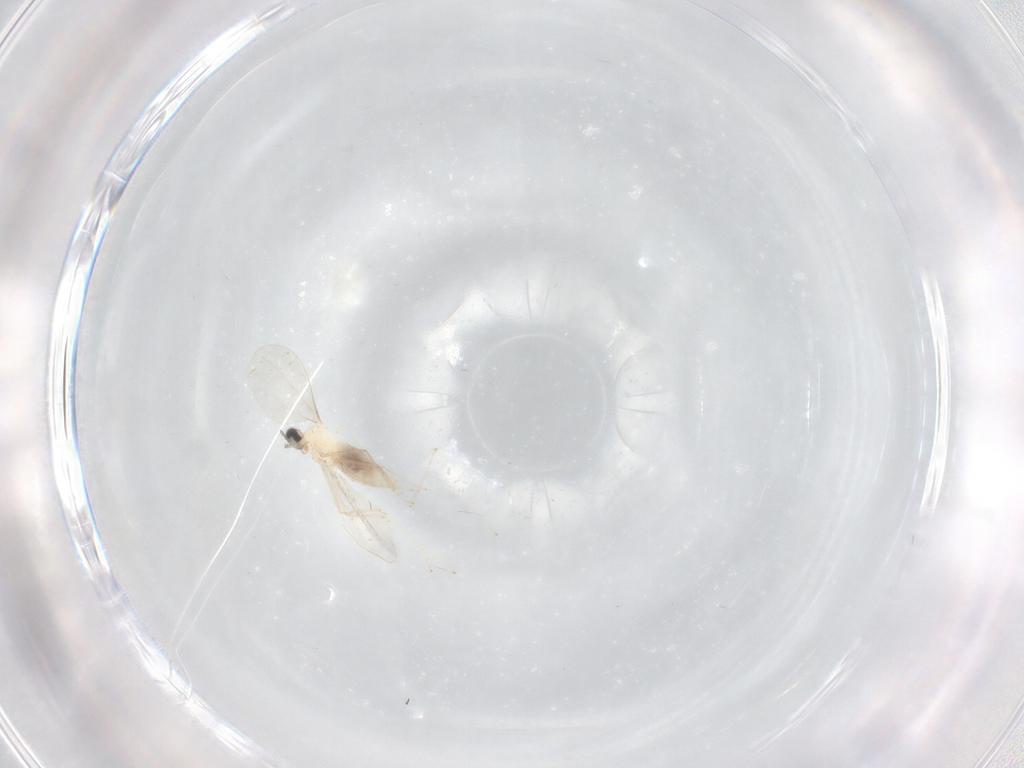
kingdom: Animalia
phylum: Arthropoda
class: Insecta
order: Diptera
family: Cecidomyiidae
